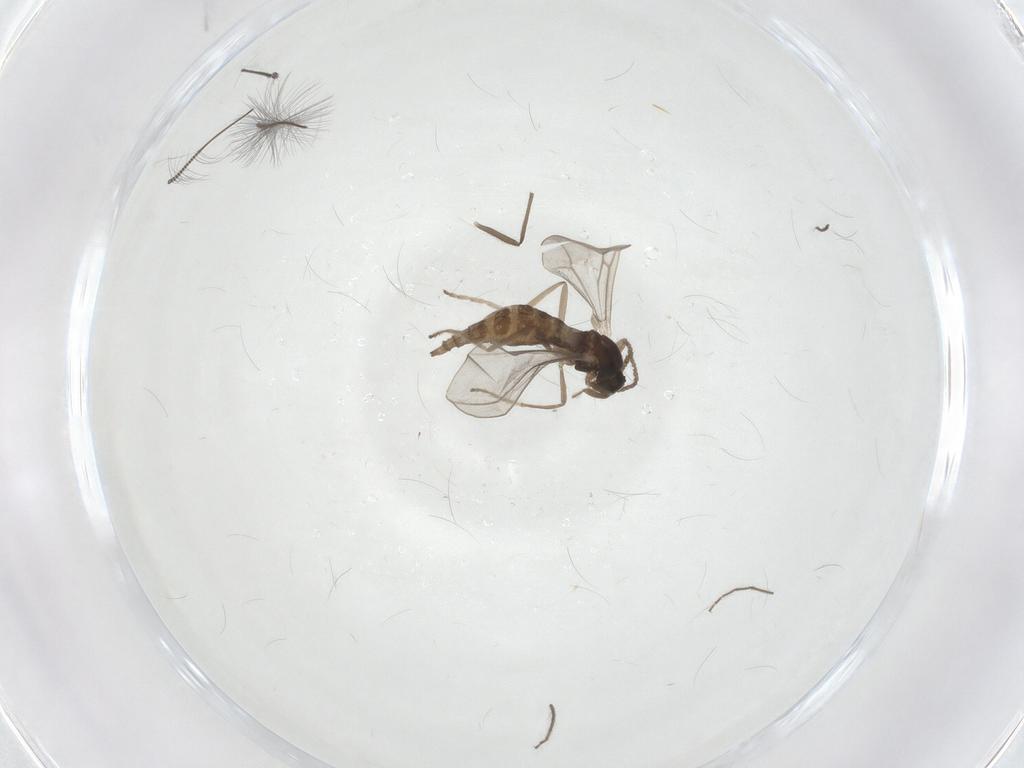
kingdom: Animalia
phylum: Arthropoda
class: Insecta
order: Diptera
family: Cecidomyiidae
